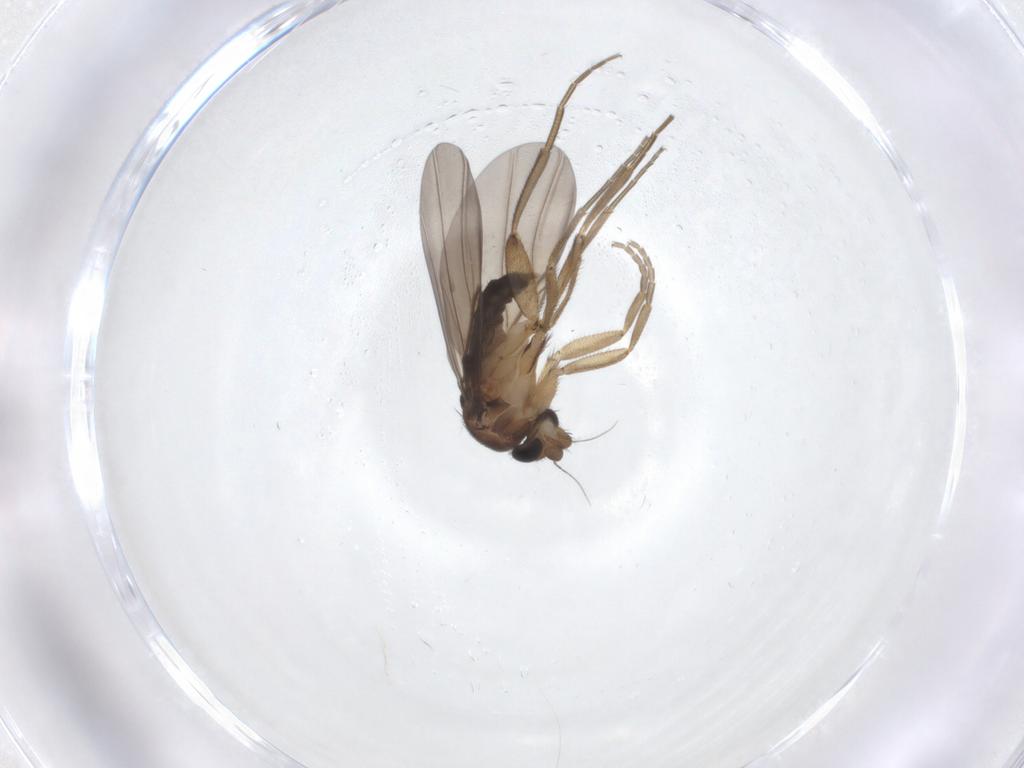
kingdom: Animalia
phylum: Arthropoda
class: Insecta
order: Diptera
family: Phoridae
